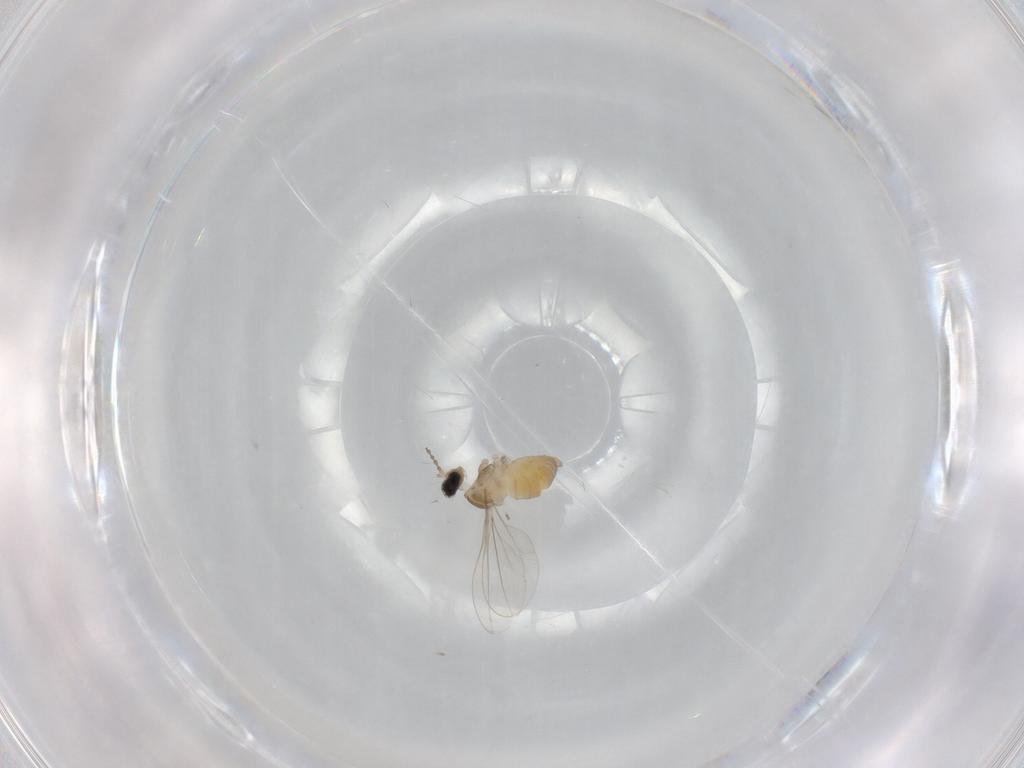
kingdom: Animalia
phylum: Arthropoda
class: Insecta
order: Diptera
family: Cecidomyiidae
